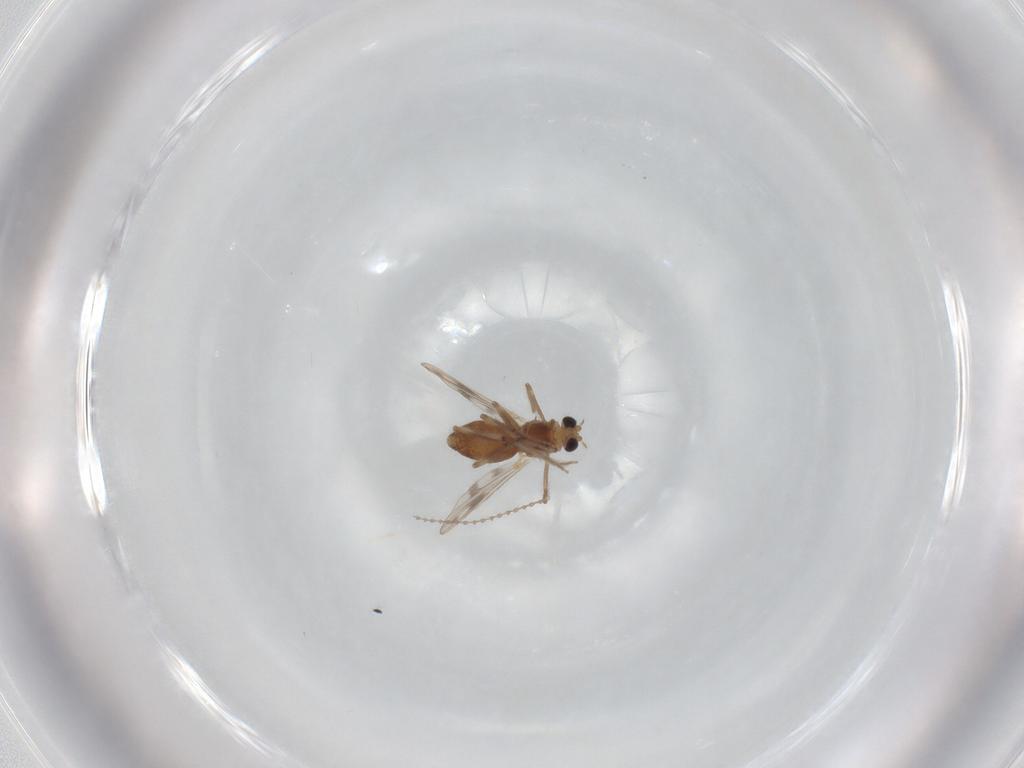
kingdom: Animalia
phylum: Arthropoda
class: Insecta
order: Diptera
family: Chironomidae
